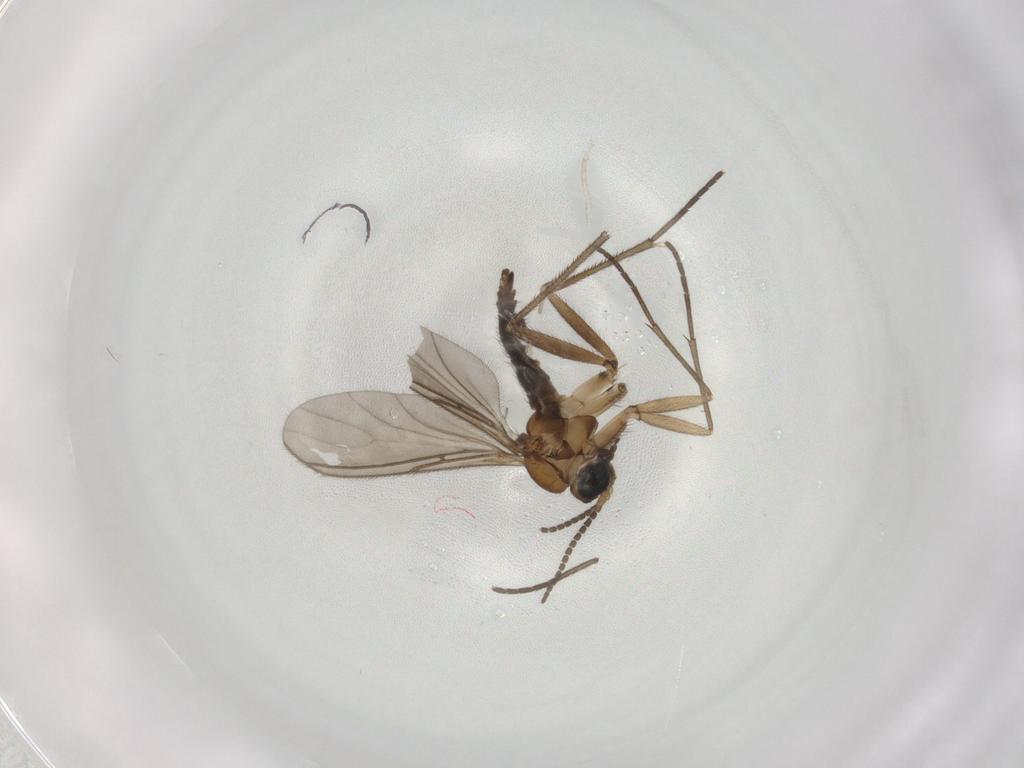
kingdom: Animalia
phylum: Arthropoda
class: Insecta
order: Diptera
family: Sciaridae
